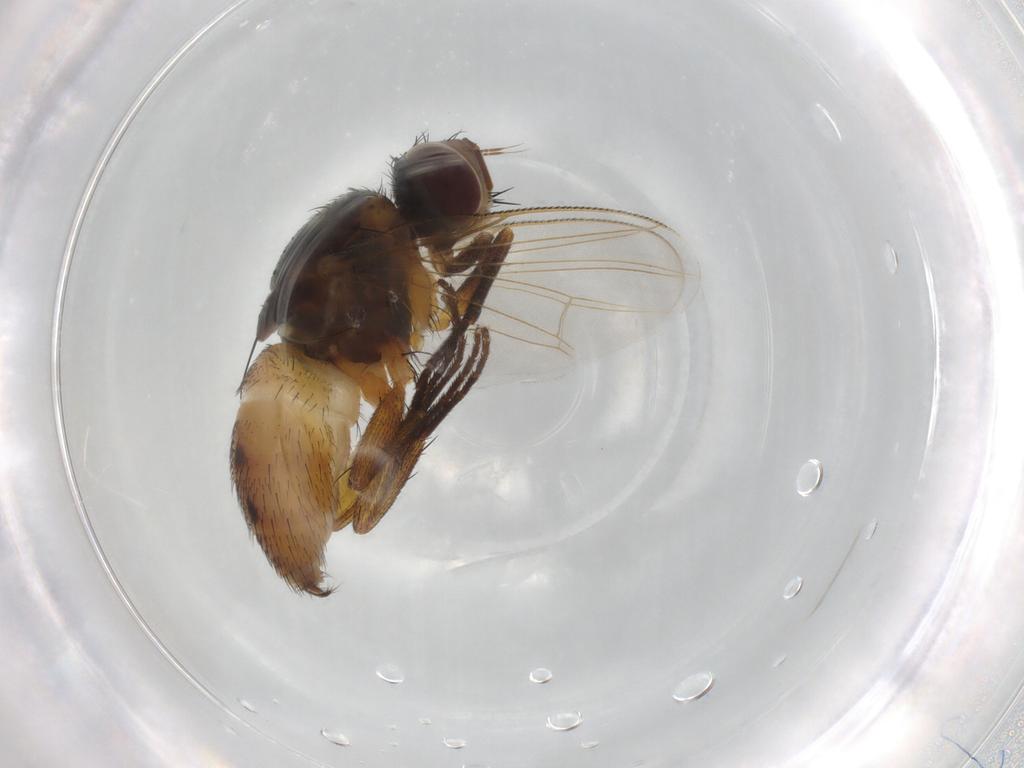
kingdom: Animalia
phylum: Arthropoda
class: Insecta
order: Diptera
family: Muscidae
